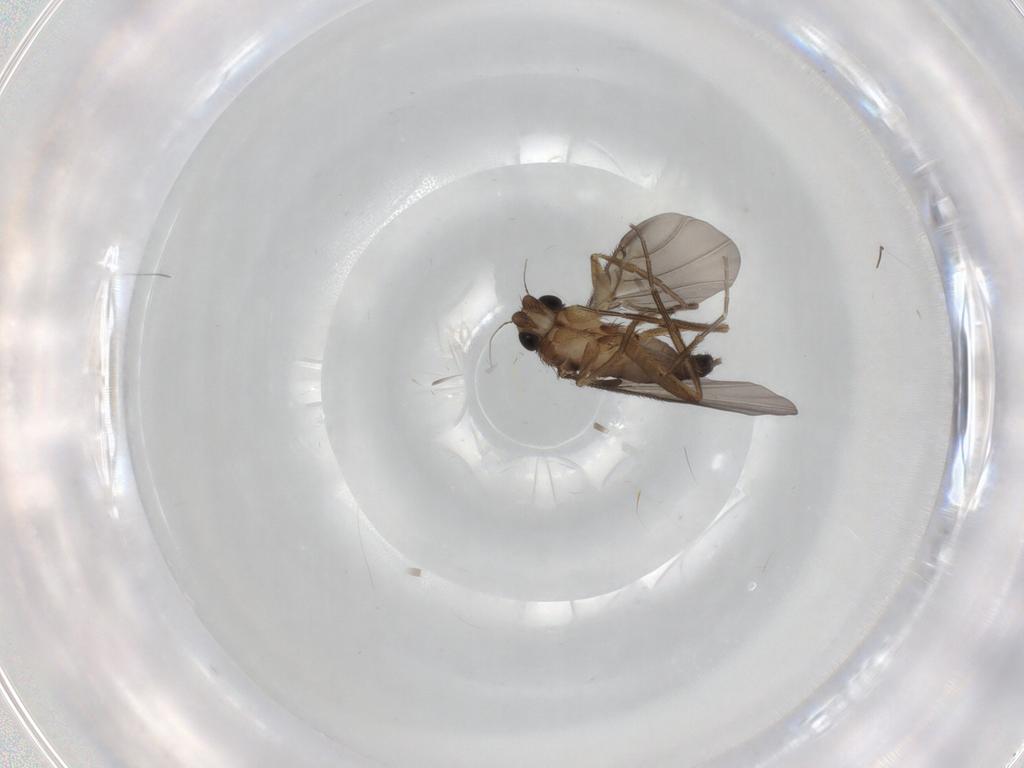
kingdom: Animalia
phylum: Arthropoda
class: Insecta
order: Diptera
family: Phoridae
